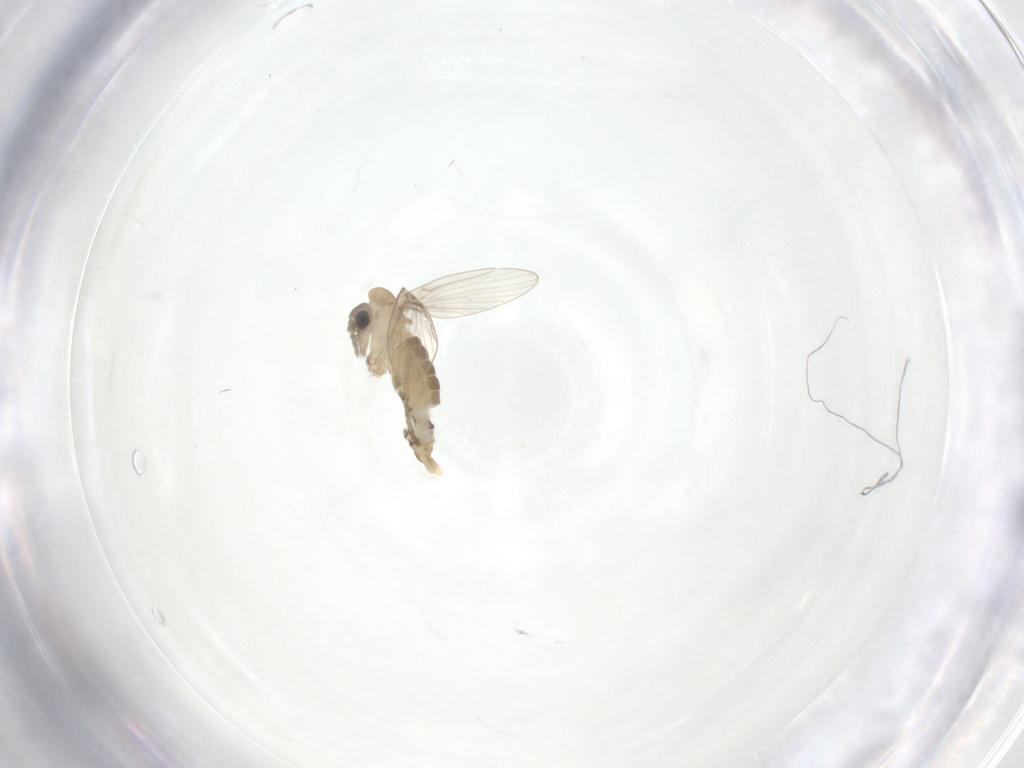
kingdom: Animalia
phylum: Arthropoda
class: Insecta
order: Diptera
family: Psychodidae
